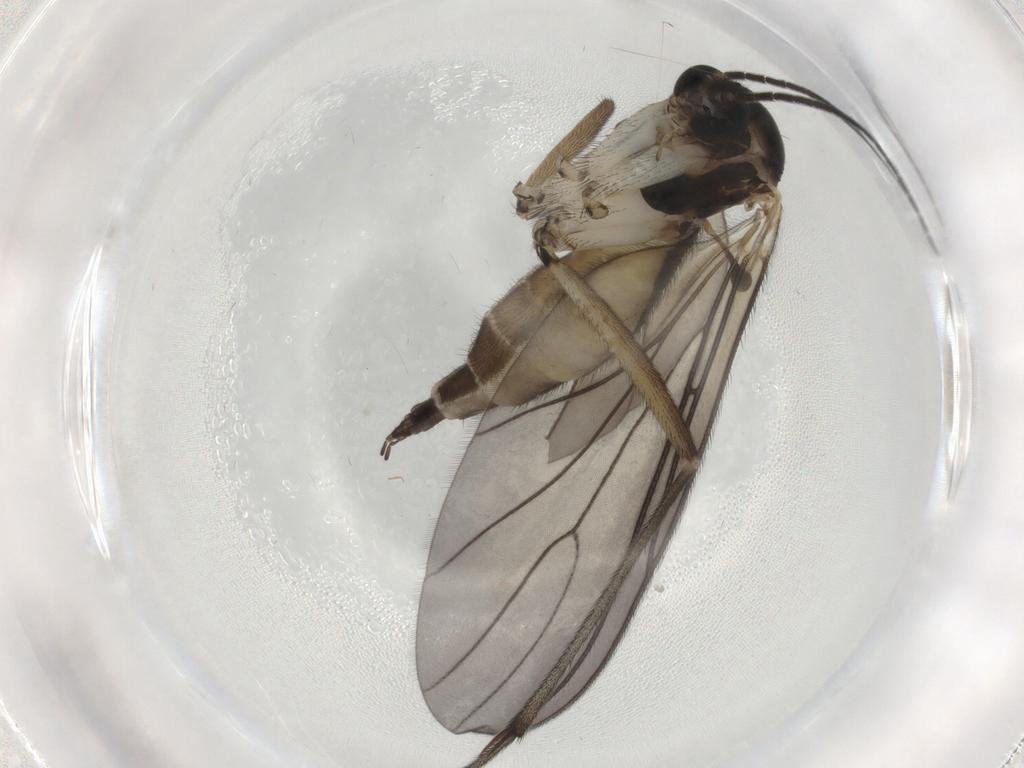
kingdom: Animalia
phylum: Arthropoda
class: Insecta
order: Diptera
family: Sciaridae
